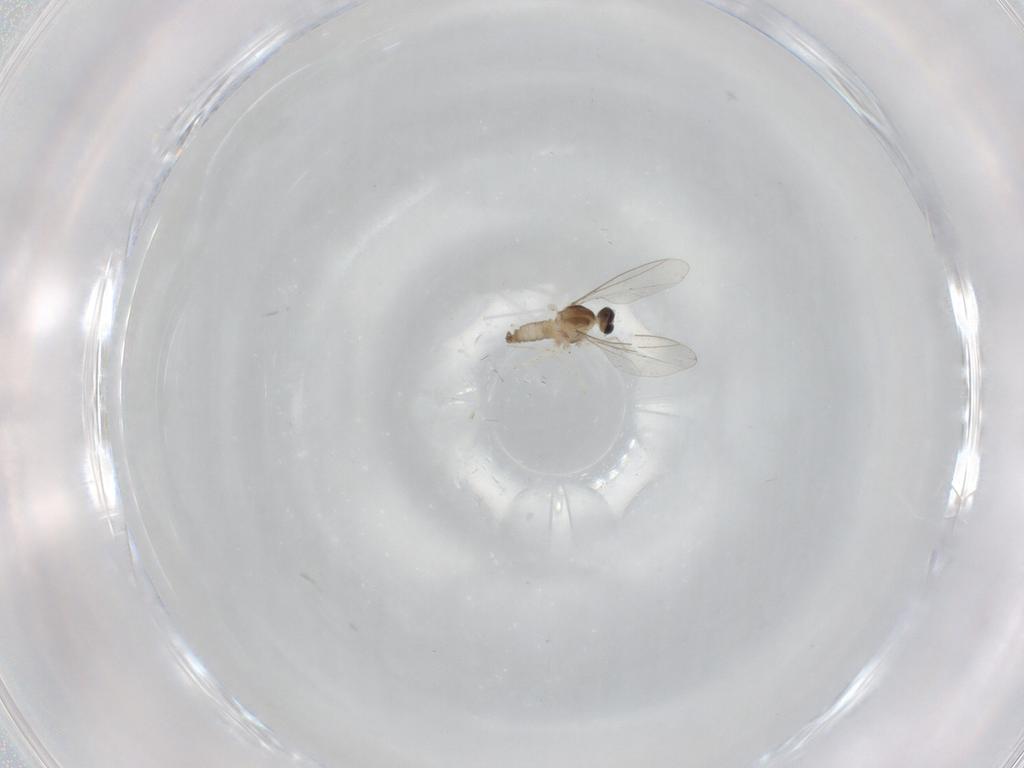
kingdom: Animalia
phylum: Arthropoda
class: Insecta
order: Diptera
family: Cecidomyiidae
